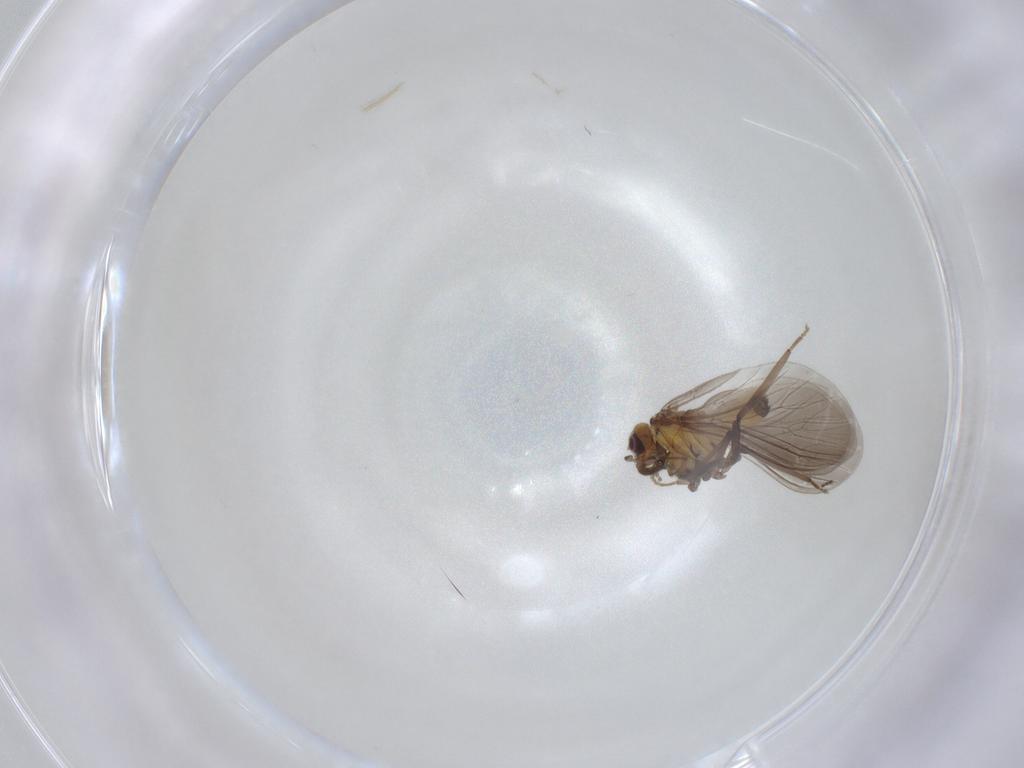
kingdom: Animalia
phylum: Arthropoda
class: Insecta
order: Neuroptera
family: Coniopterygidae
